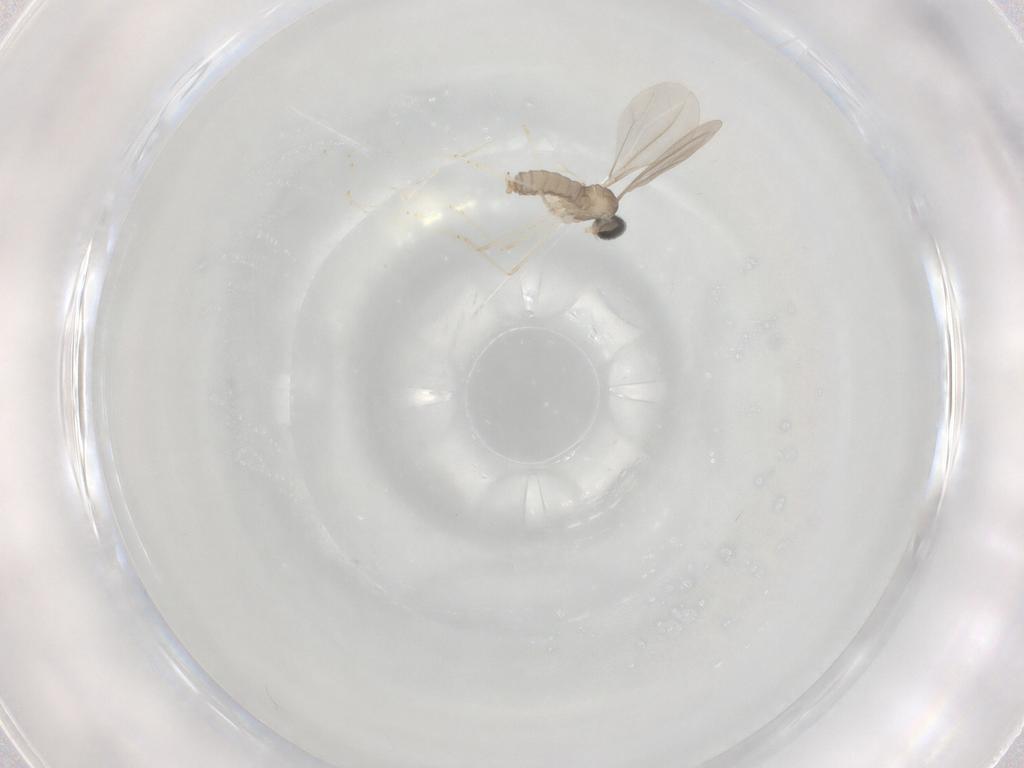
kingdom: Animalia
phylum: Arthropoda
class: Insecta
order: Diptera
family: Cecidomyiidae
